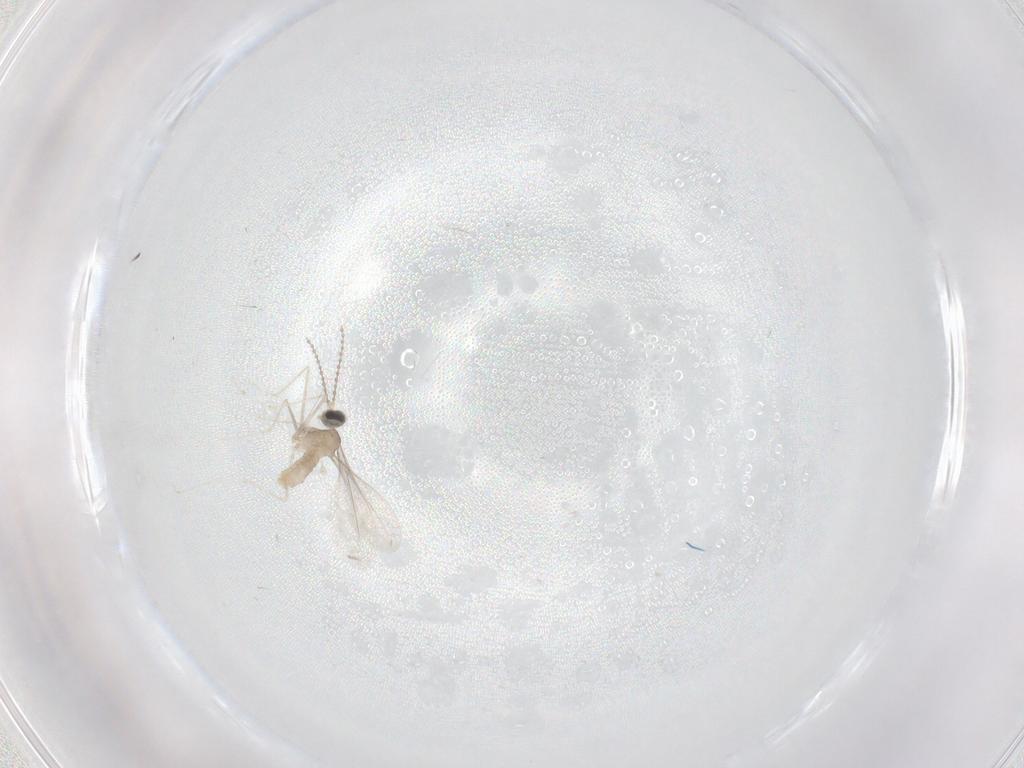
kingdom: Animalia
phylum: Arthropoda
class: Insecta
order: Diptera
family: Cecidomyiidae
